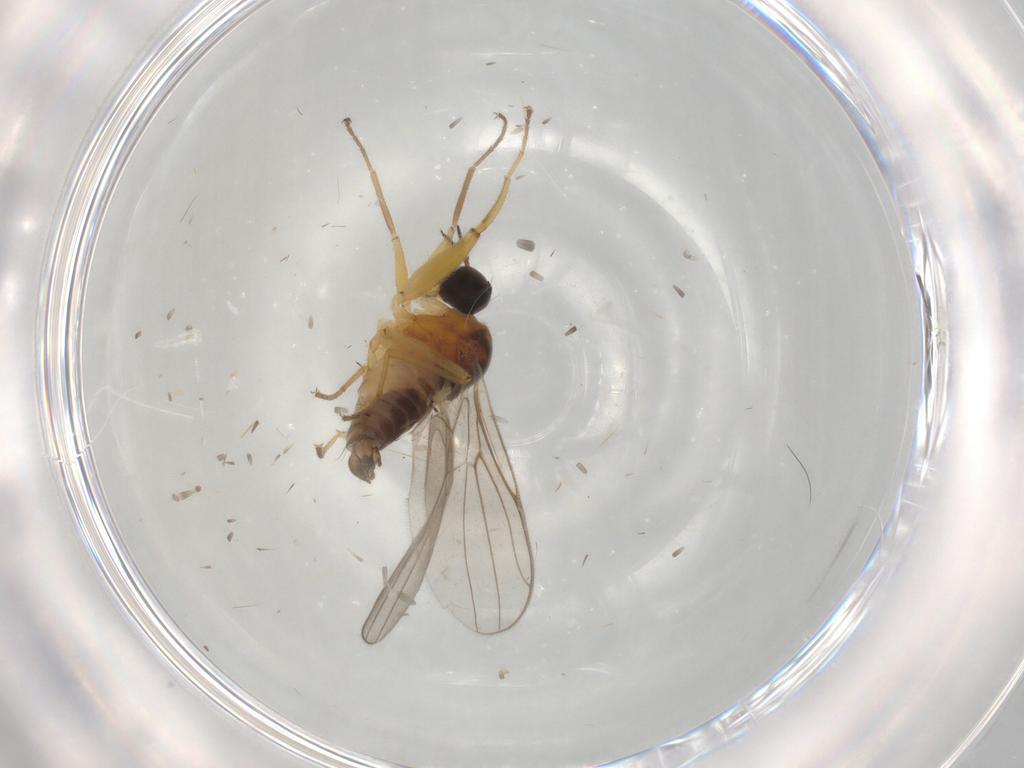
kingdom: Animalia
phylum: Arthropoda
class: Insecta
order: Diptera
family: Hybotidae
